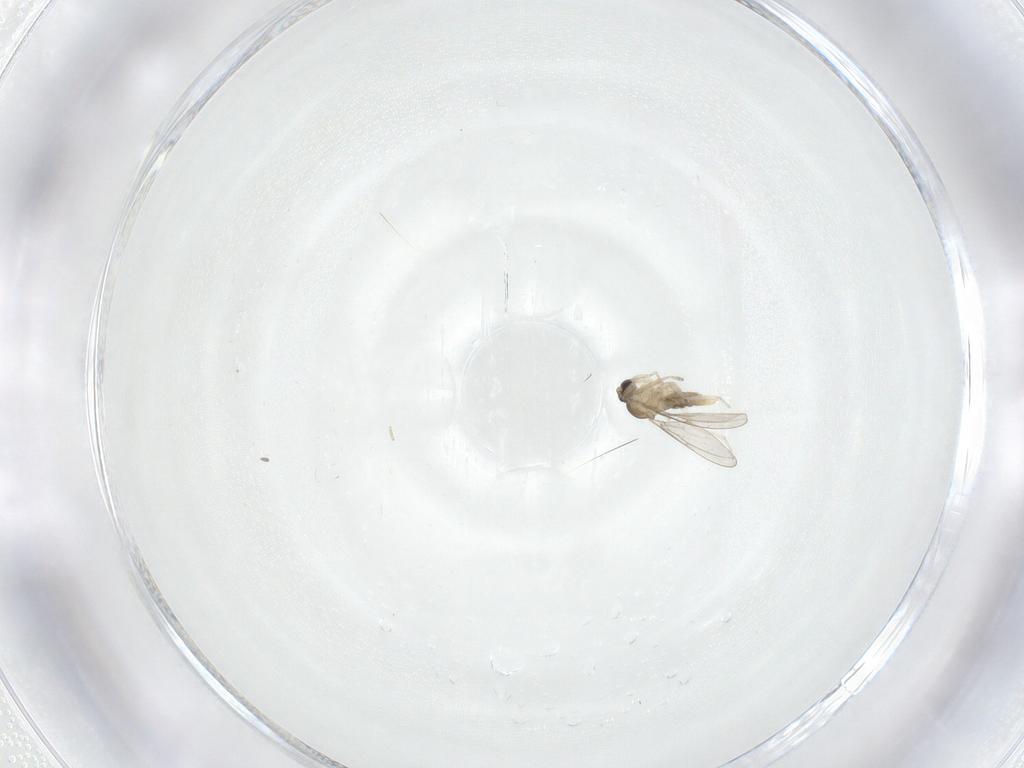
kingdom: Animalia
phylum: Arthropoda
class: Insecta
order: Diptera
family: Cecidomyiidae
